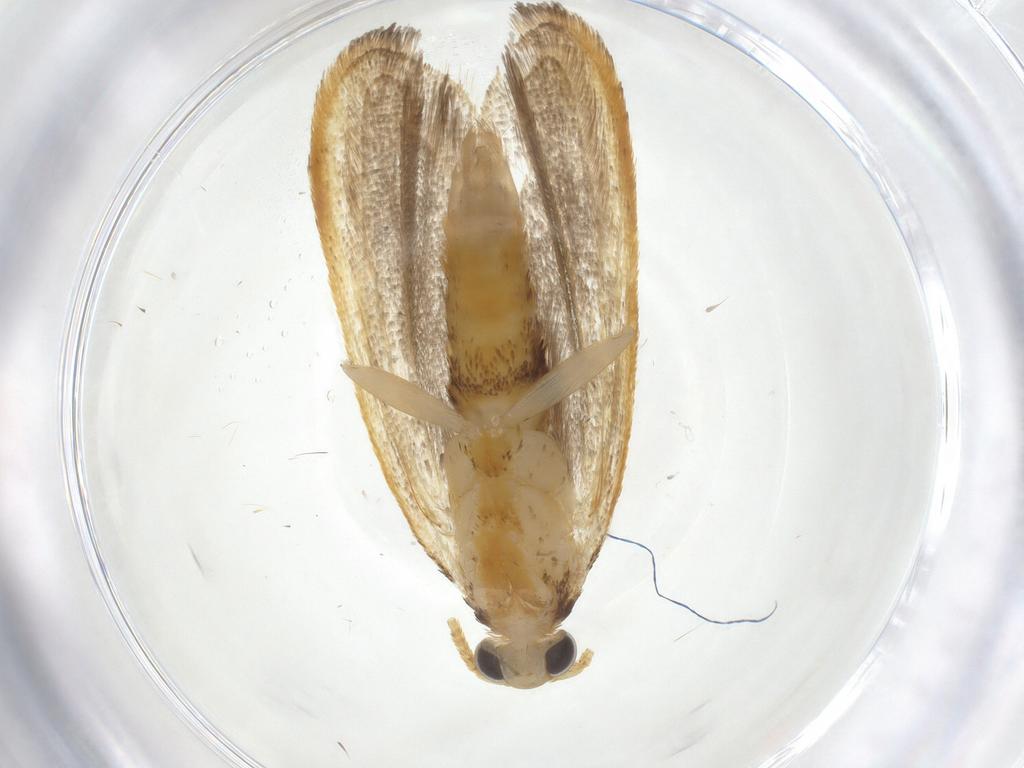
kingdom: Animalia
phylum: Arthropoda
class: Insecta
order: Lepidoptera
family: Lecithoceridae
